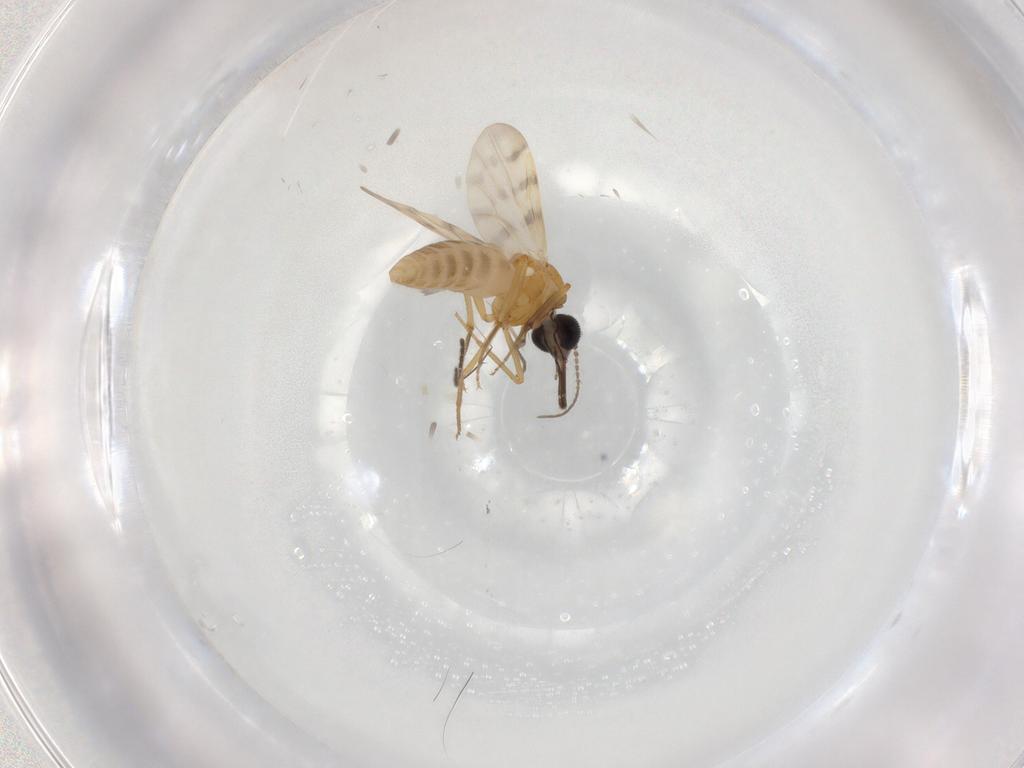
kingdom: Animalia
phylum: Arthropoda
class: Insecta
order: Diptera
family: Ceratopogonidae
